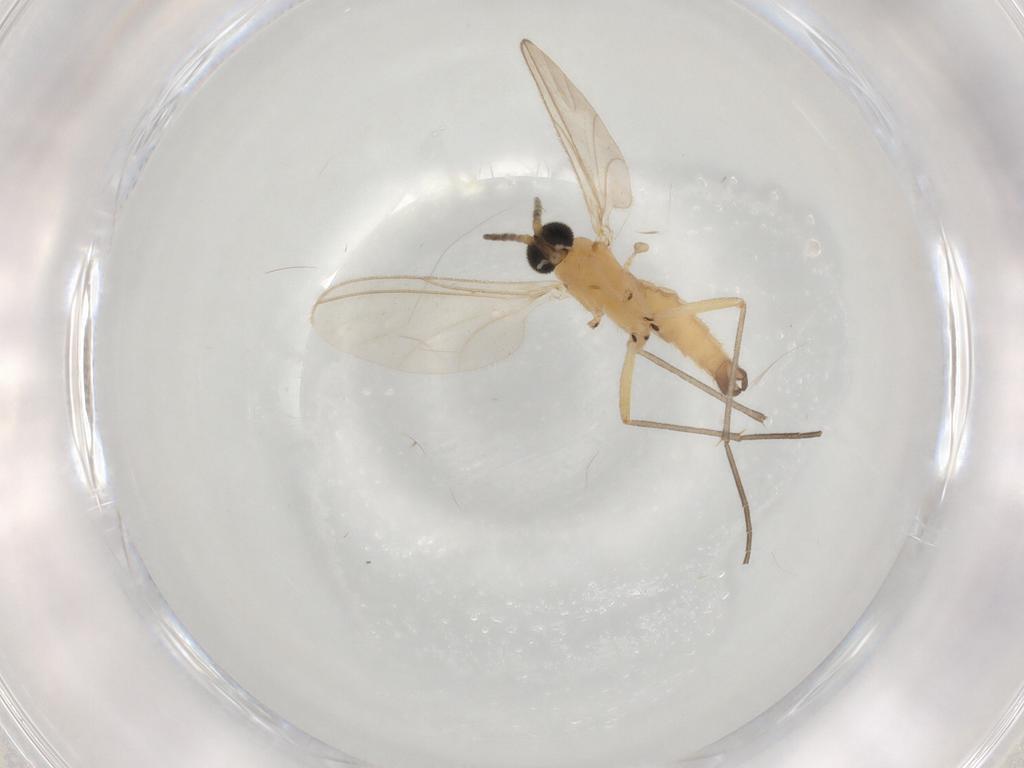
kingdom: Animalia
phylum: Arthropoda
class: Insecta
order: Diptera
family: Sciaridae
